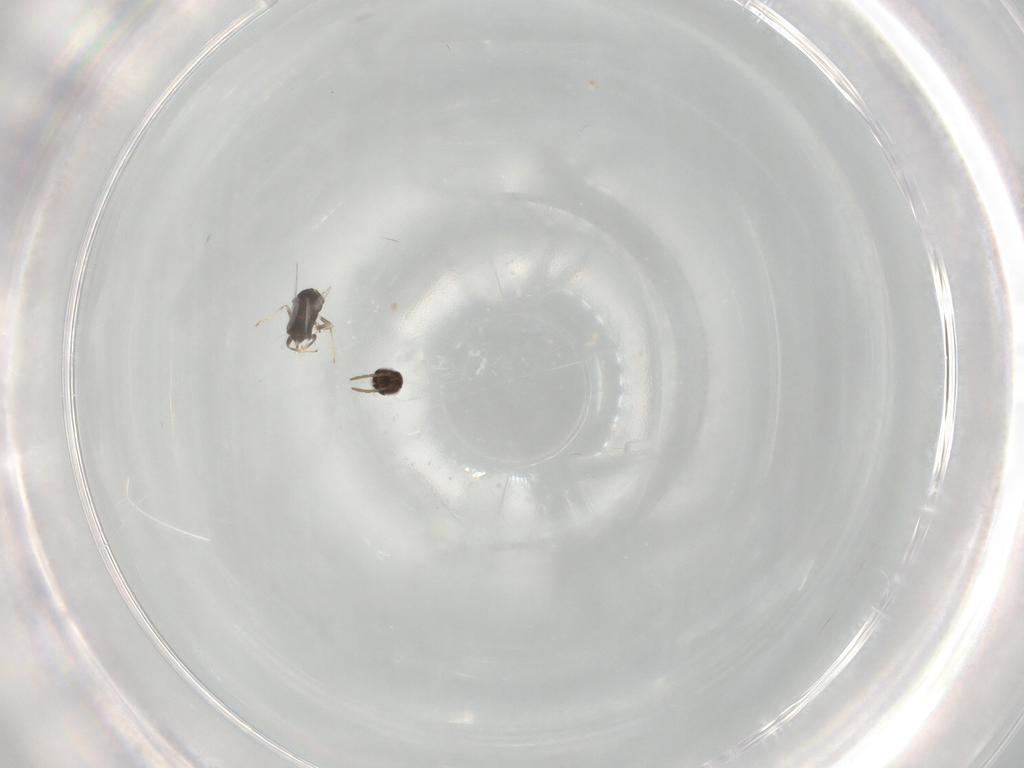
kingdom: Animalia
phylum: Arthropoda
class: Insecta
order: Hymenoptera
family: Aphelinidae
